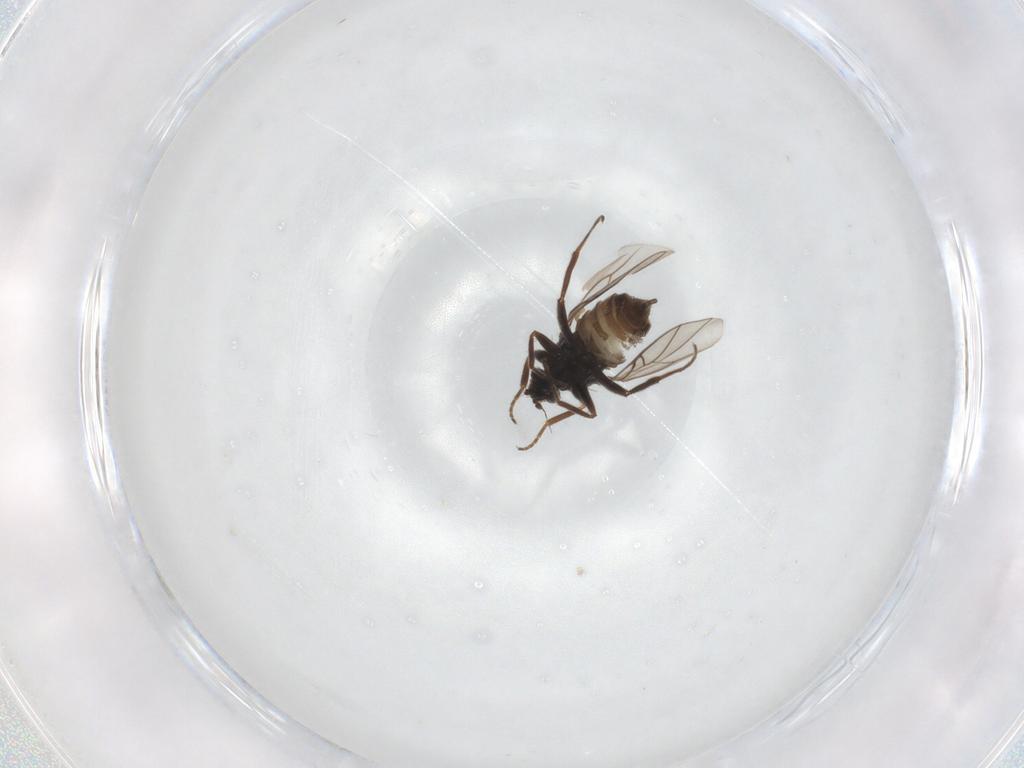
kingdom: Animalia
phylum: Arthropoda
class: Insecta
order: Diptera
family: Hybotidae
